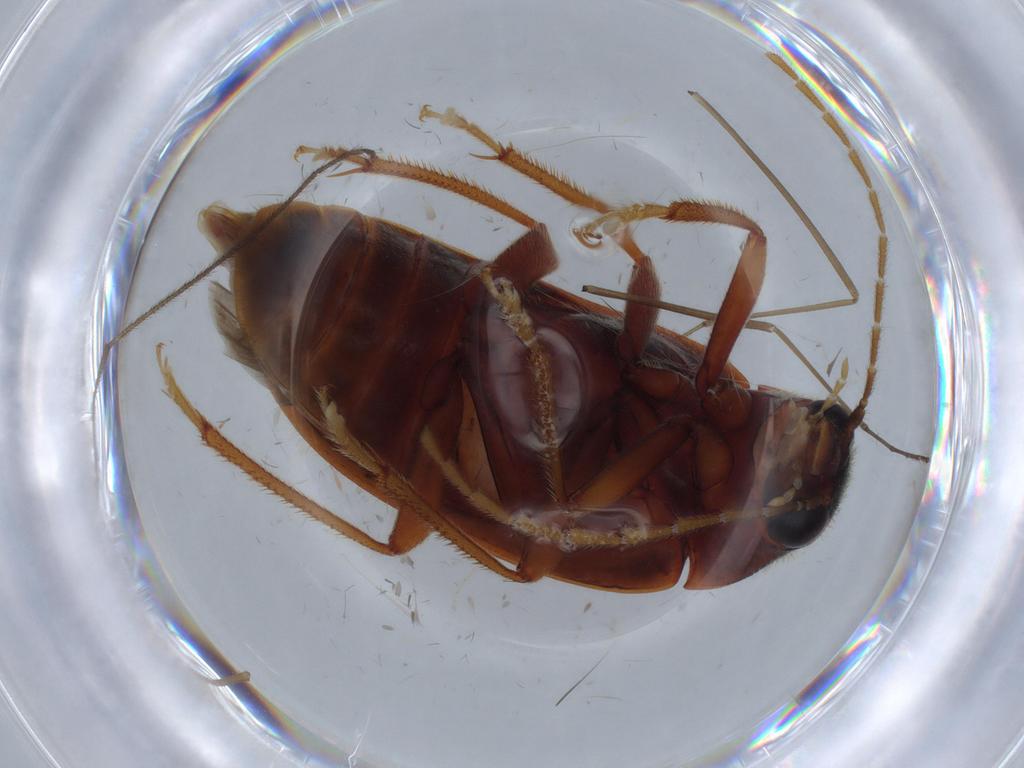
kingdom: Animalia
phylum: Arthropoda
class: Insecta
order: Coleoptera
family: Ptilodactylidae
